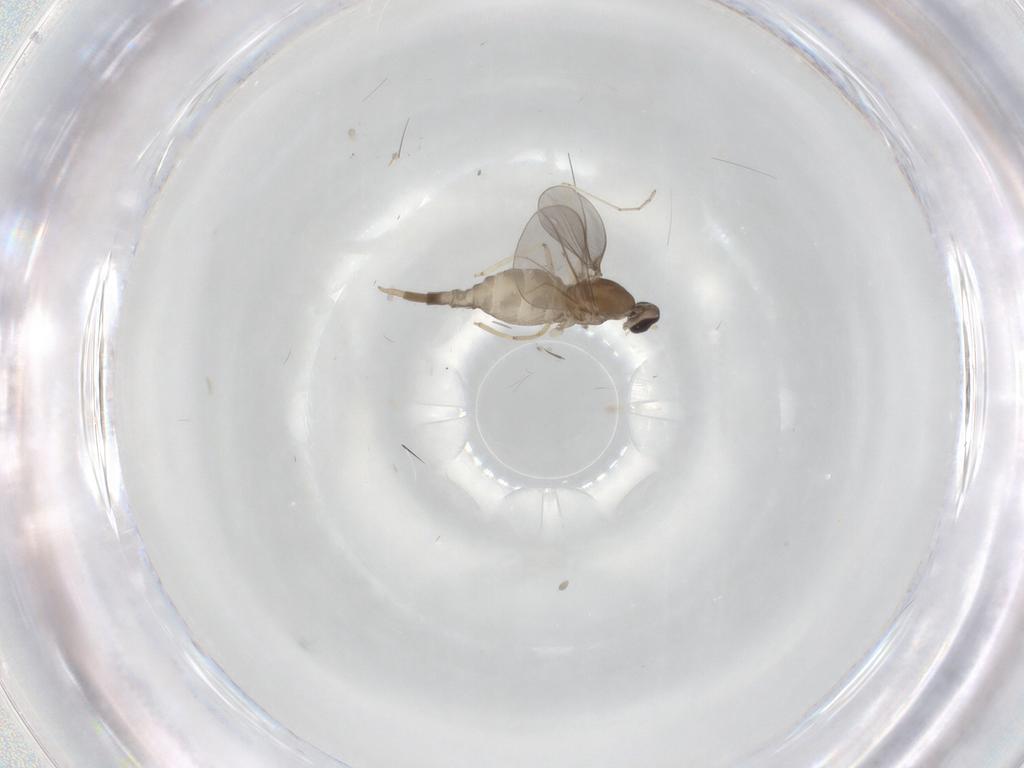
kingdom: Animalia
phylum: Arthropoda
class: Insecta
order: Diptera
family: Cecidomyiidae
